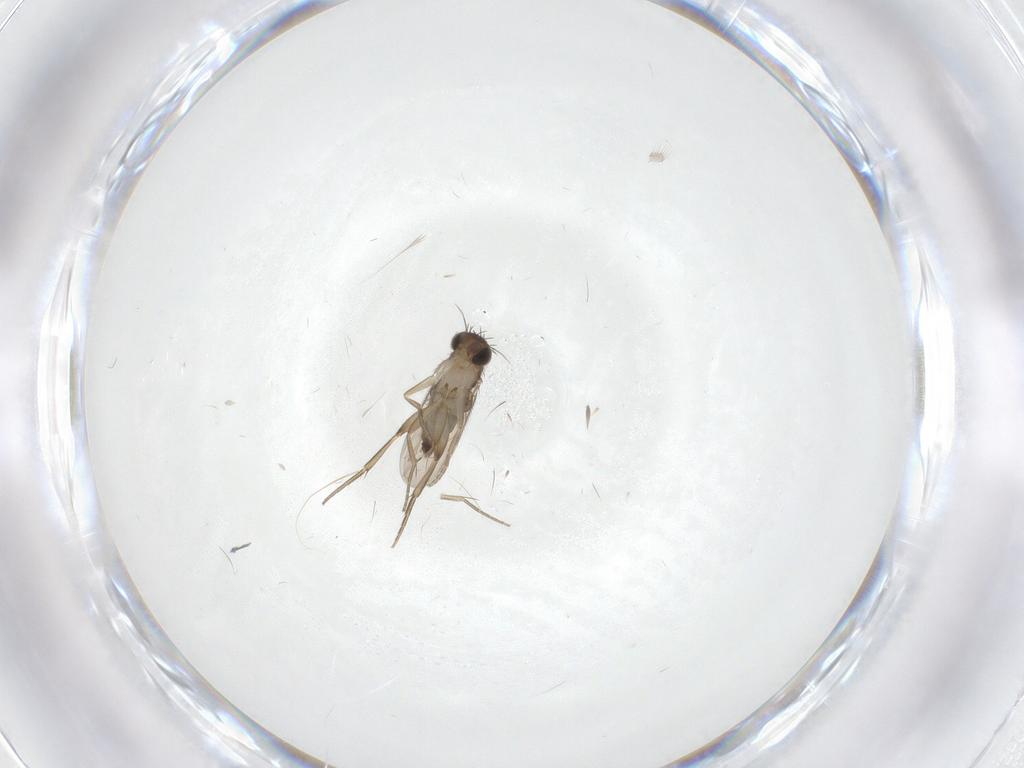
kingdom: Animalia
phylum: Arthropoda
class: Insecta
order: Diptera
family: Phoridae
